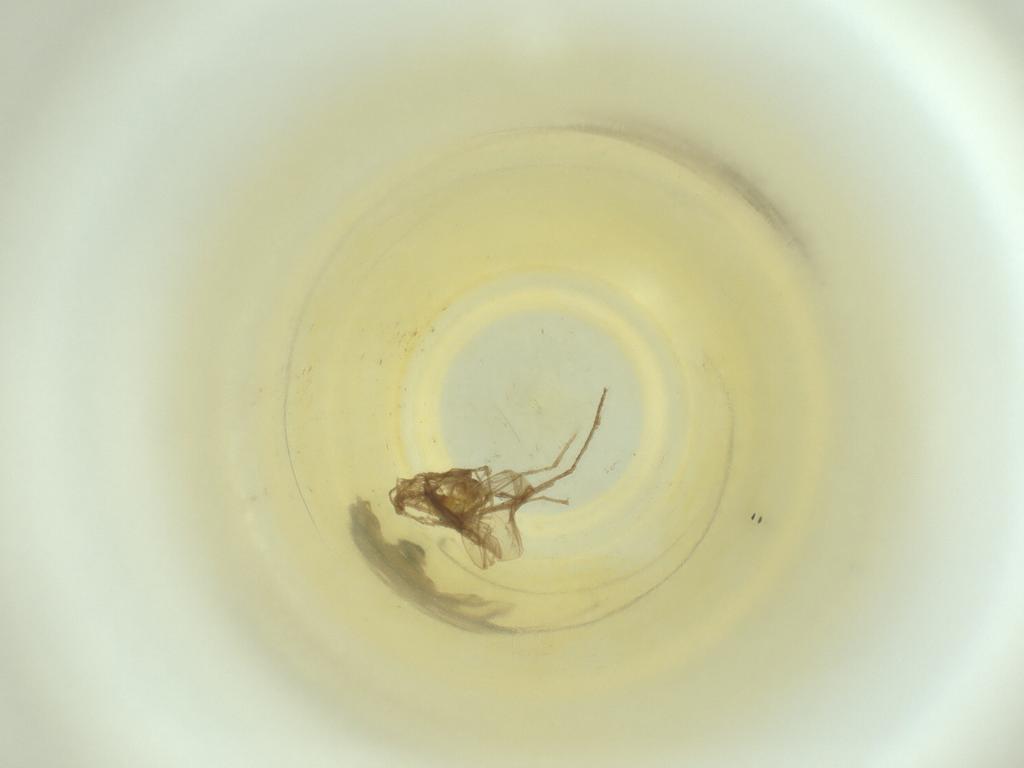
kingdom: Animalia
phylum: Arthropoda
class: Insecta
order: Diptera
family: Cecidomyiidae
